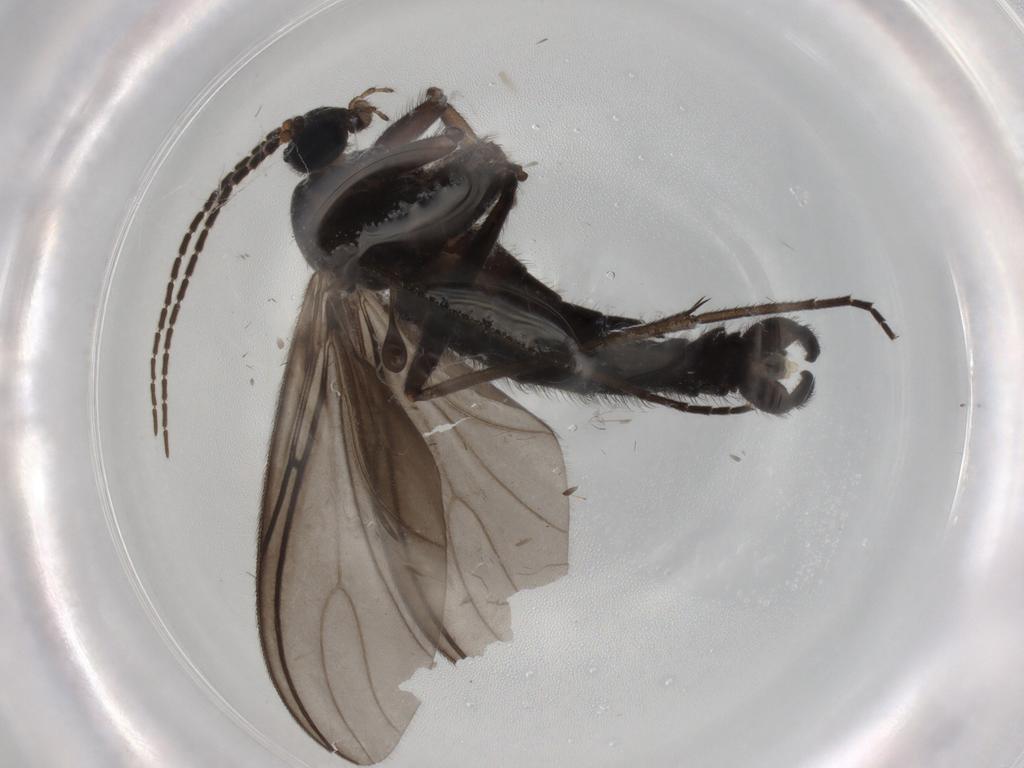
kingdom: Animalia
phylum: Arthropoda
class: Insecta
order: Diptera
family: Sciaridae
